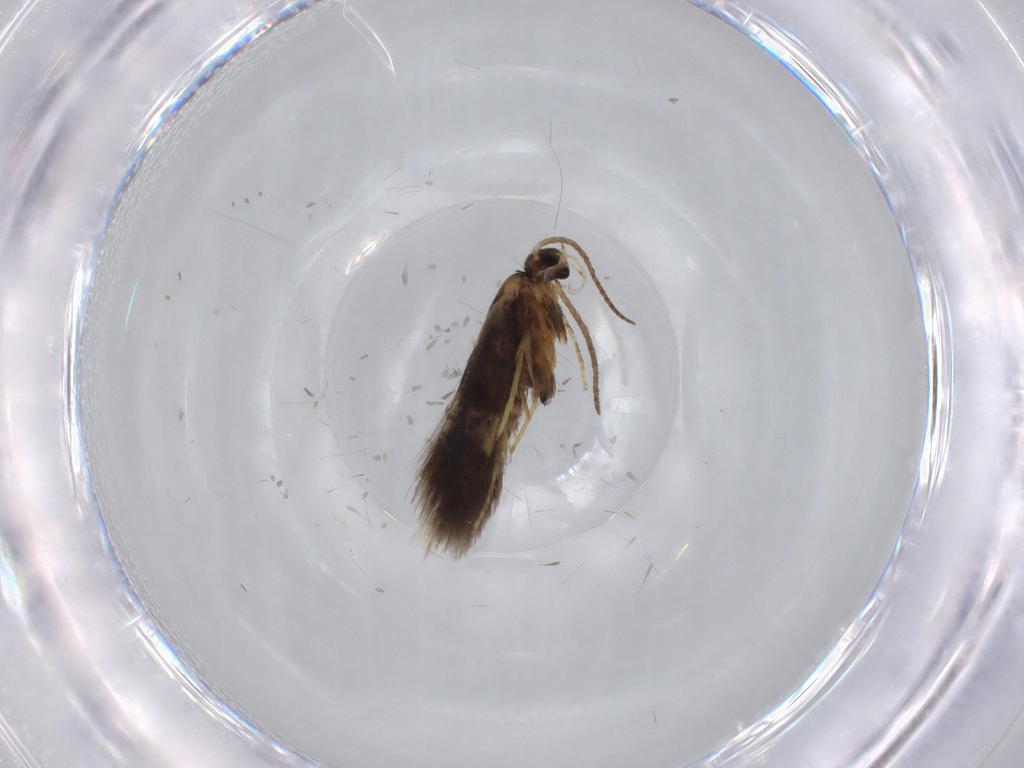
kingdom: Animalia
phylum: Arthropoda
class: Insecta
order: Lepidoptera
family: Heliozelidae
